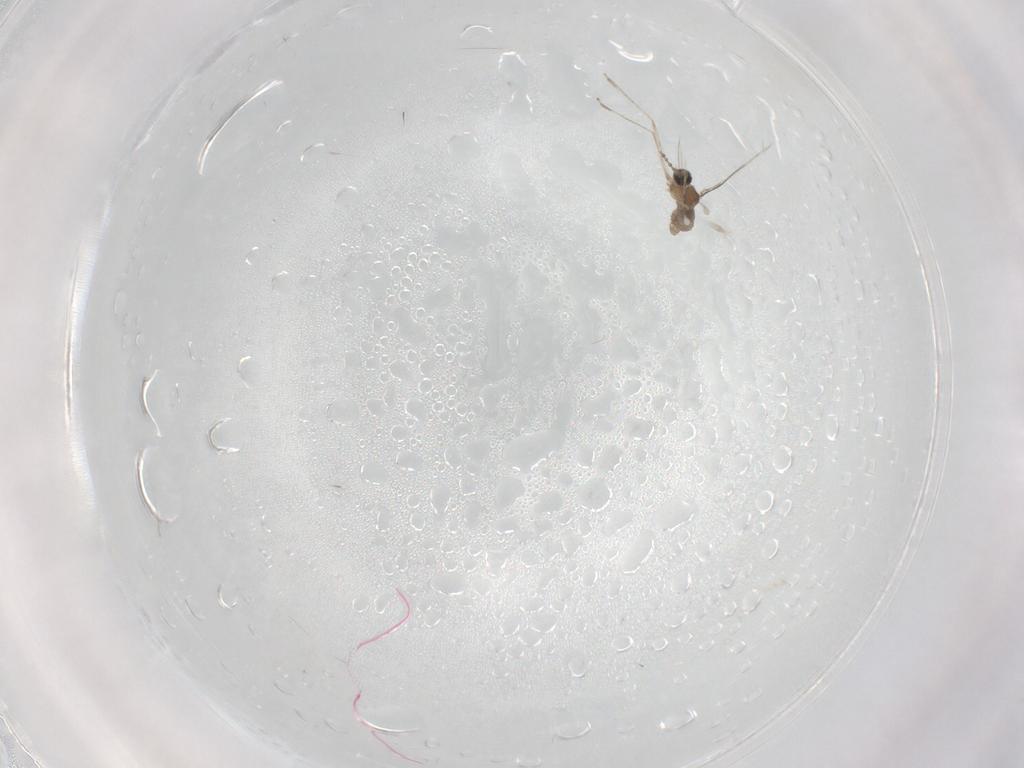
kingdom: Animalia
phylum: Arthropoda
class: Insecta
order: Diptera
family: Cecidomyiidae
